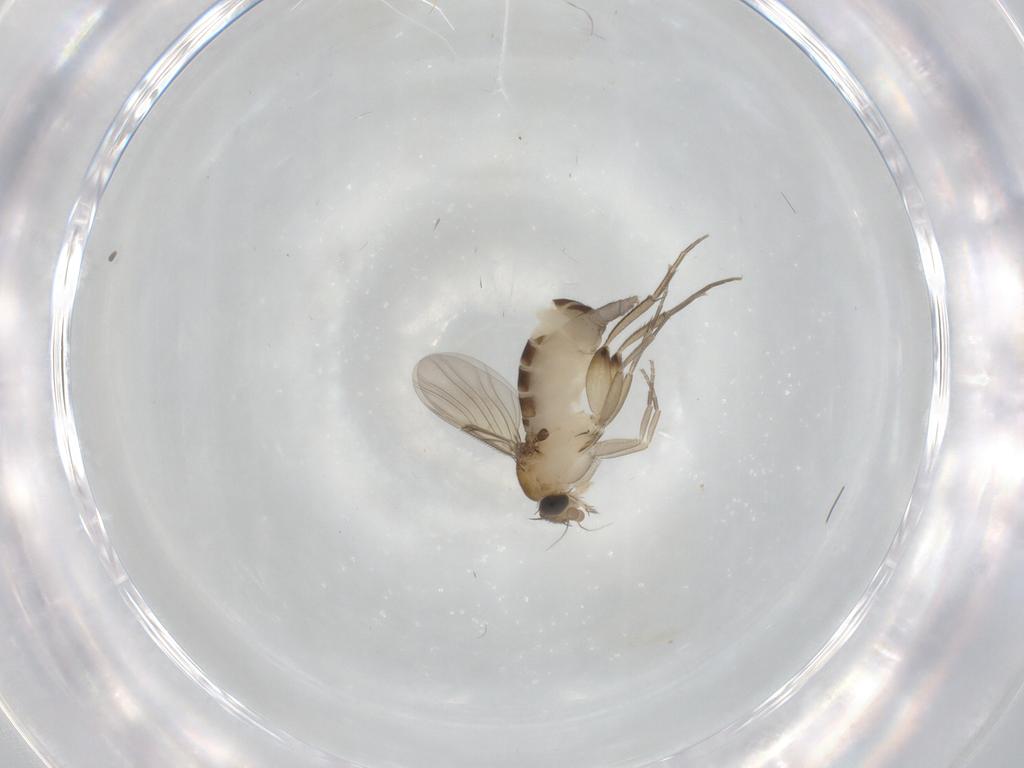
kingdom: Animalia
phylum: Arthropoda
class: Insecta
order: Diptera
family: Phoridae
